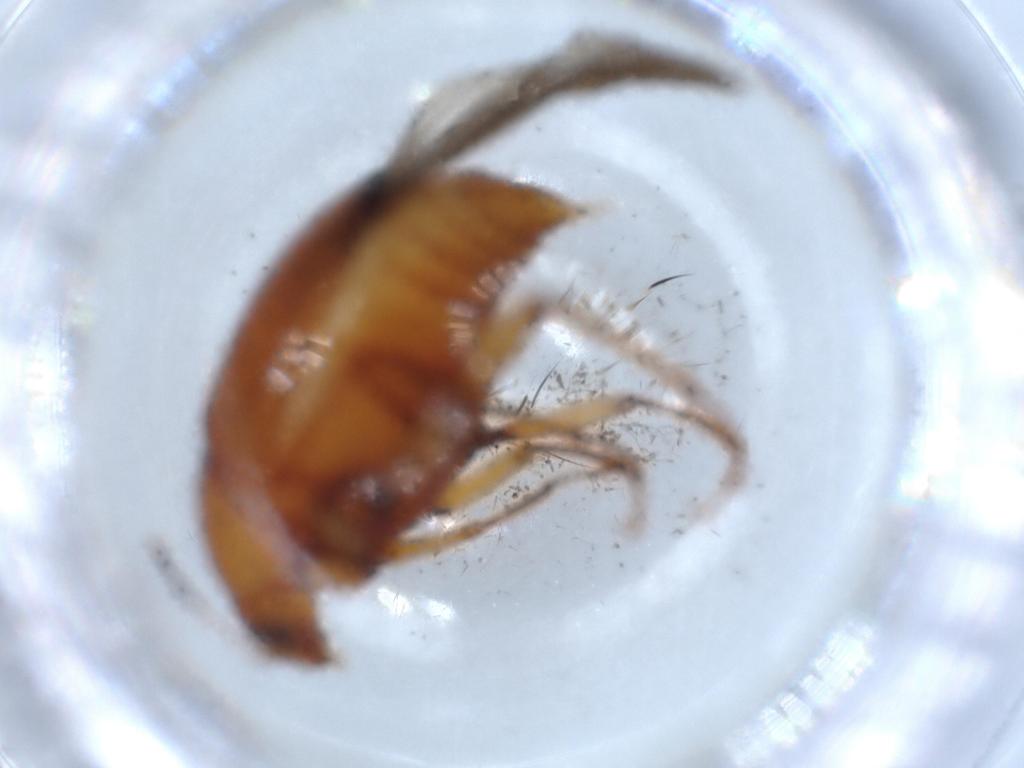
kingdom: Animalia
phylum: Arthropoda
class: Insecta
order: Coleoptera
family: Staphylinidae
